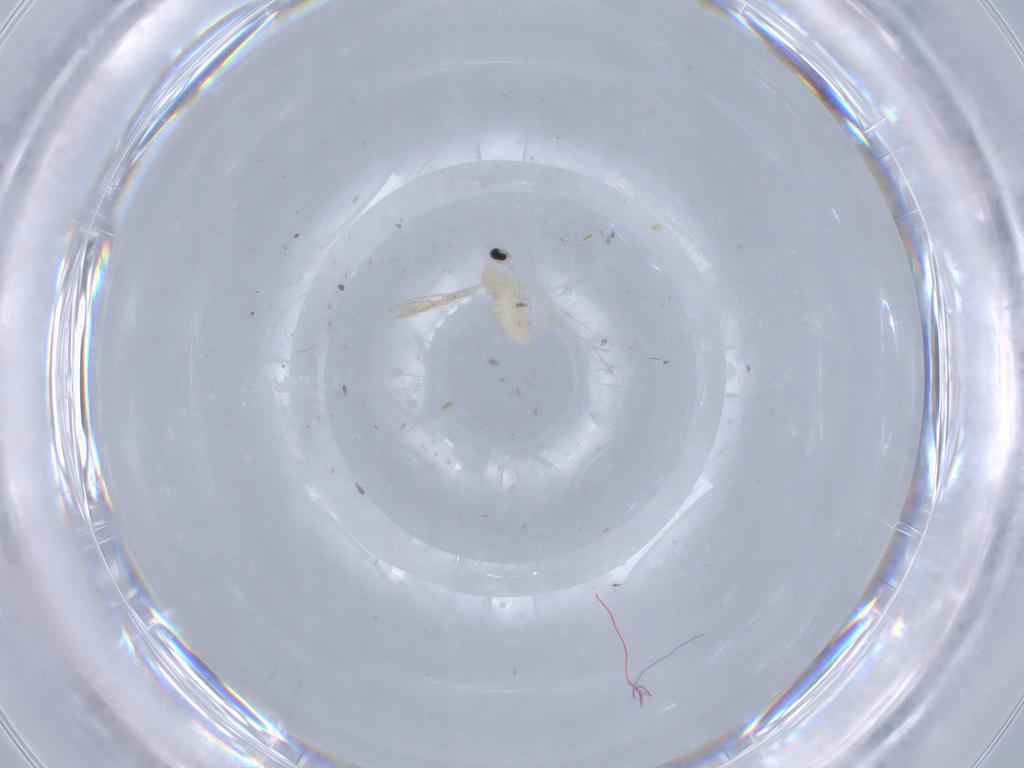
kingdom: Animalia
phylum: Arthropoda
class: Insecta
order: Diptera
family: Cecidomyiidae
